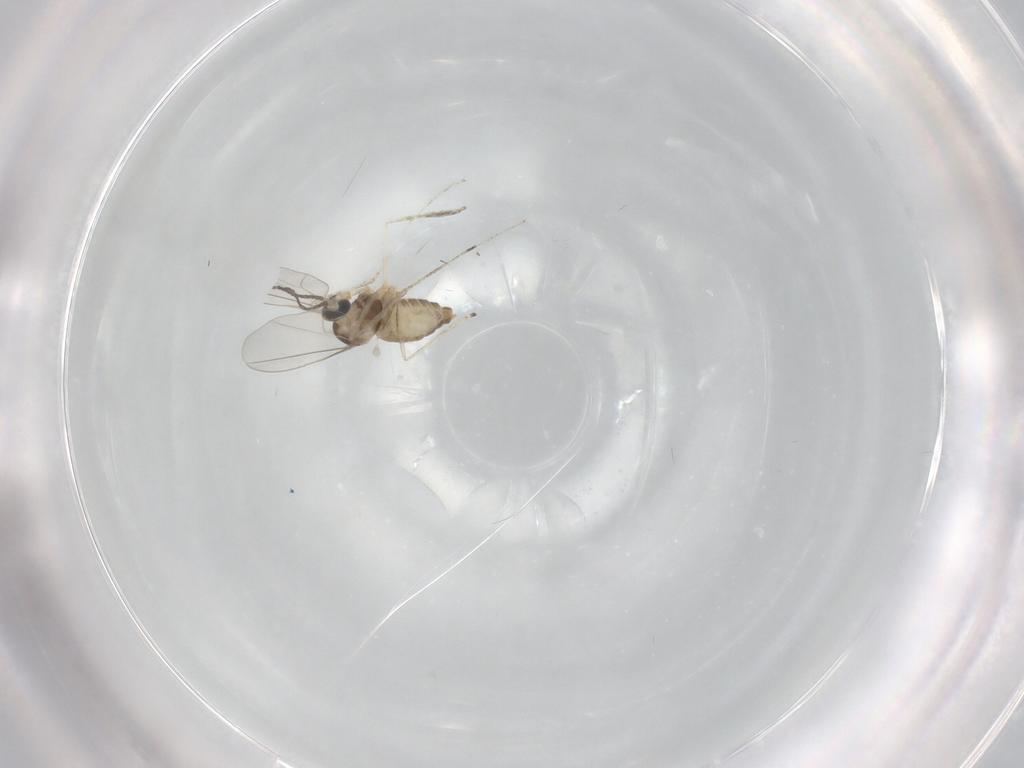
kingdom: Animalia
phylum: Arthropoda
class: Insecta
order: Diptera
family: Cecidomyiidae
